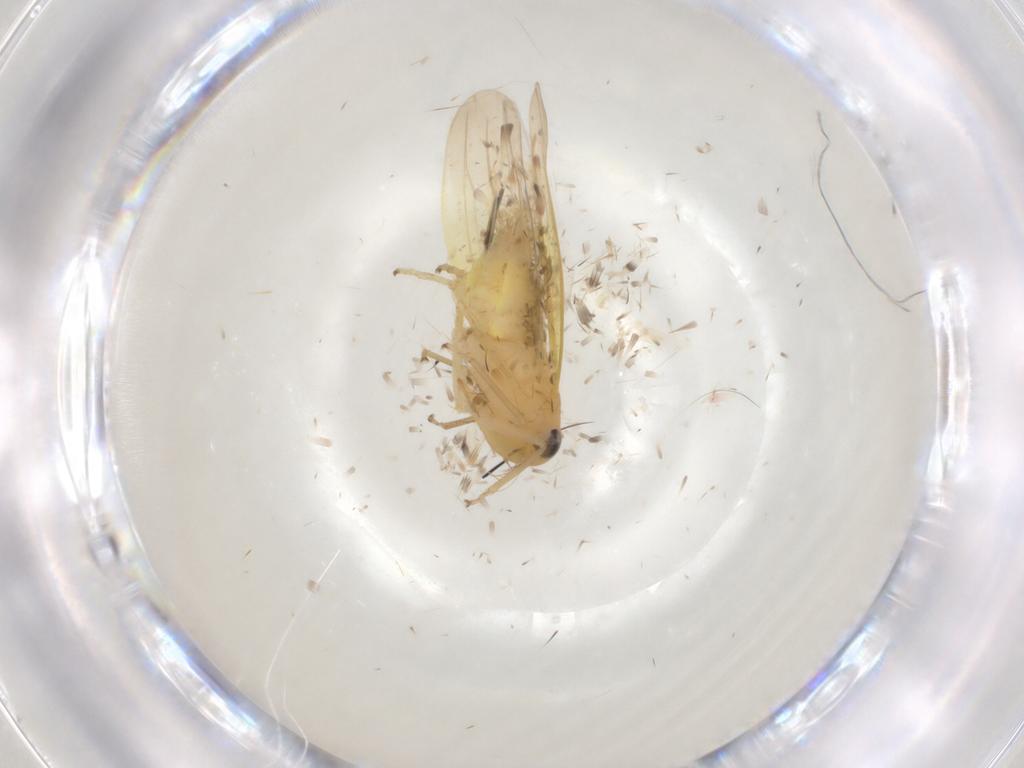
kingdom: Animalia
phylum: Arthropoda
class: Insecta
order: Hemiptera
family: Cicadellidae
